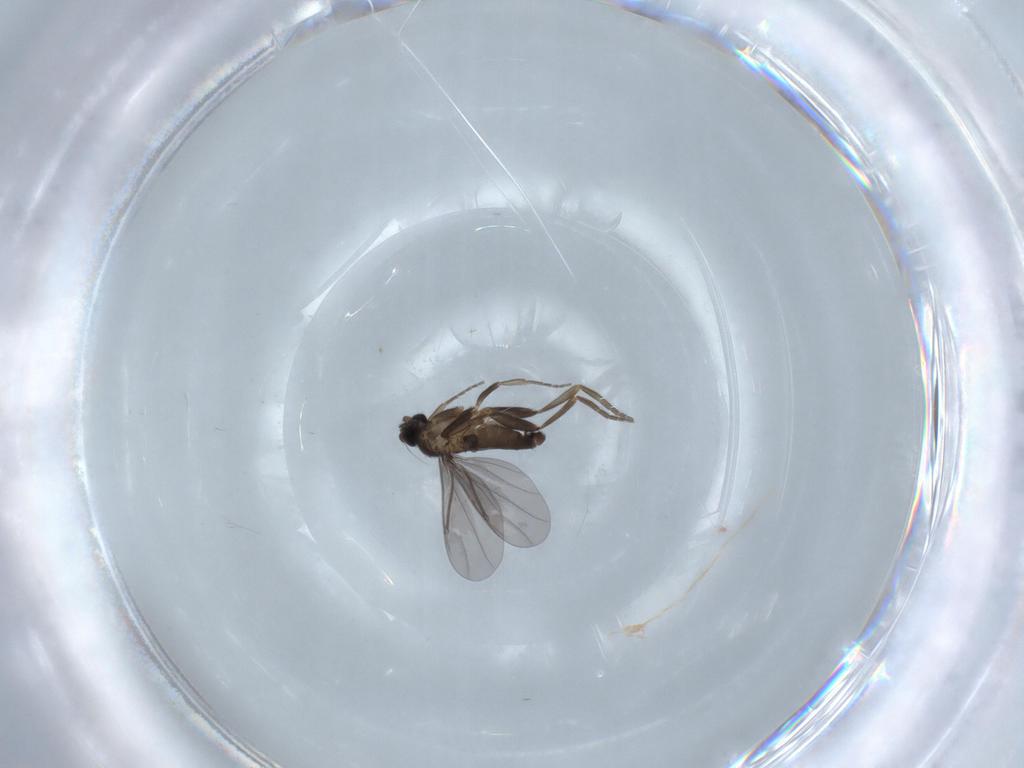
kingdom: Animalia
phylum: Arthropoda
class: Insecta
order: Diptera
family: Phoridae
